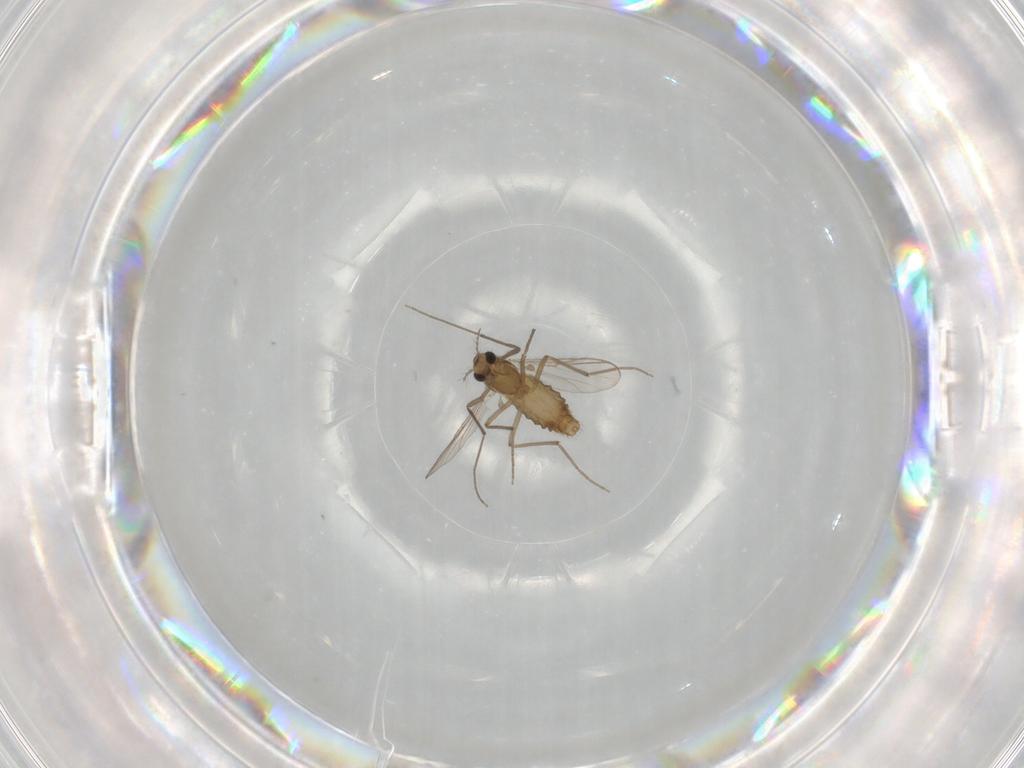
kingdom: Animalia
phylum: Arthropoda
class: Insecta
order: Diptera
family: Chironomidae
